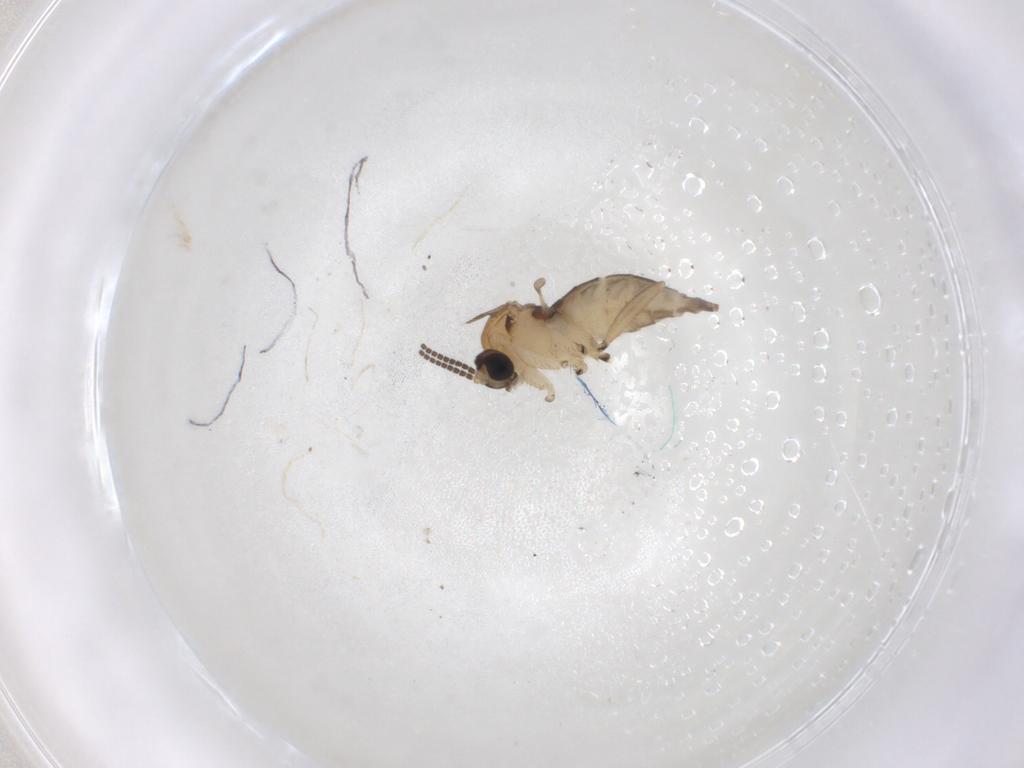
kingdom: Animalia
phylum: Arthropoda
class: Insecta
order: Diptera
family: Sciaridae
